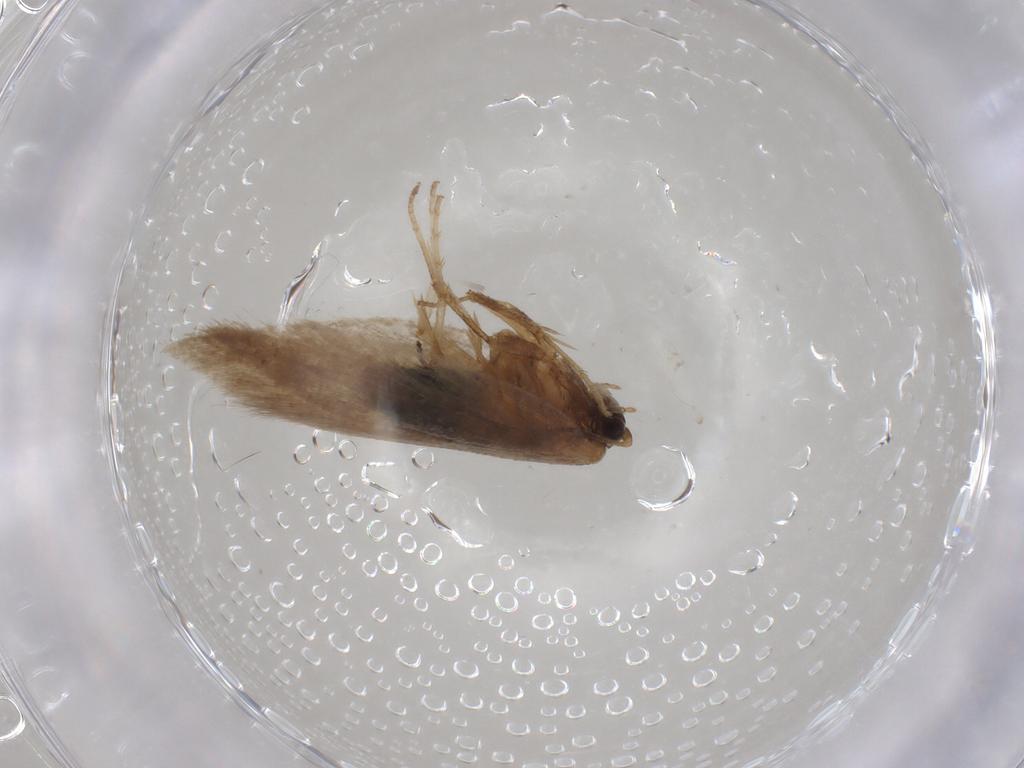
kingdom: Animalia
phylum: Arthropoda
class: Insecta
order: Lepidoptera
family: Nepticulidae
